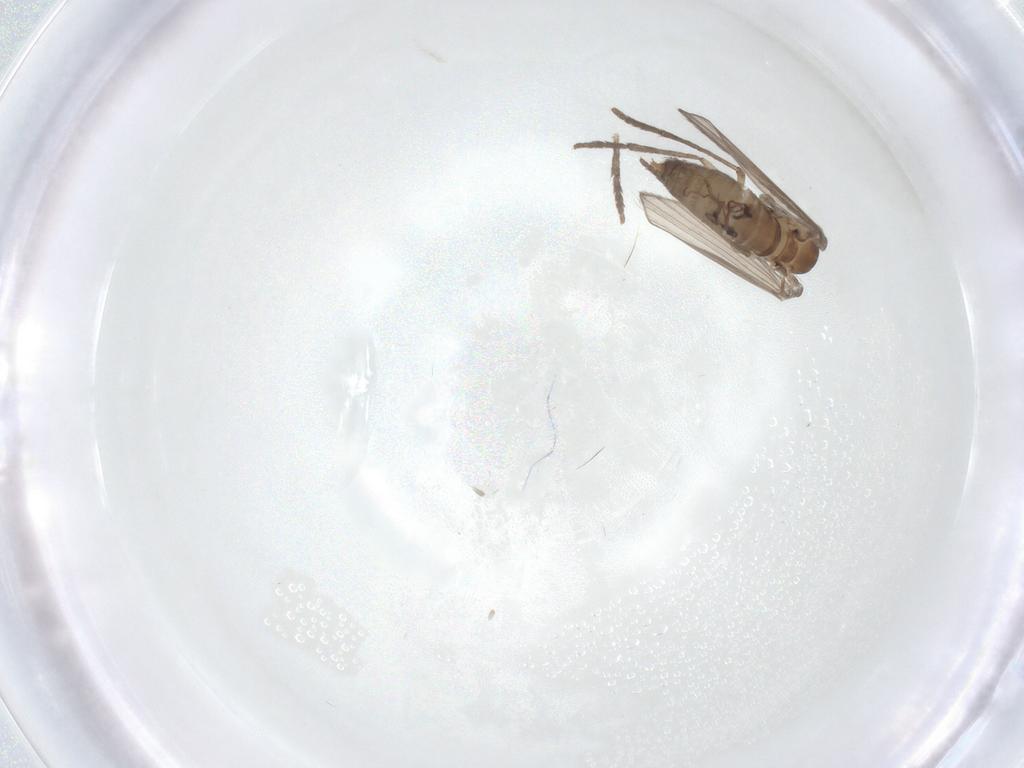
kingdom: Animalia
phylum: Arthropoda
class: Insecta
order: Diptera
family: Psychodidae
